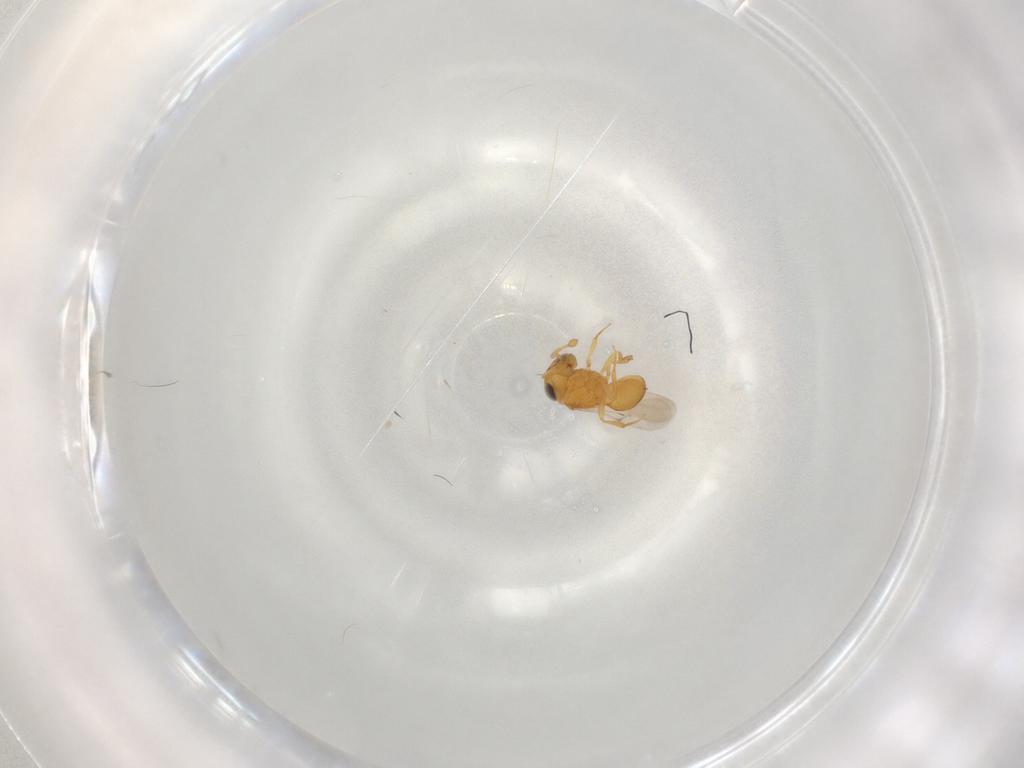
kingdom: Animalia
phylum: Arthropoda
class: Insecta
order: Hymenoptera
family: Scelionidae
